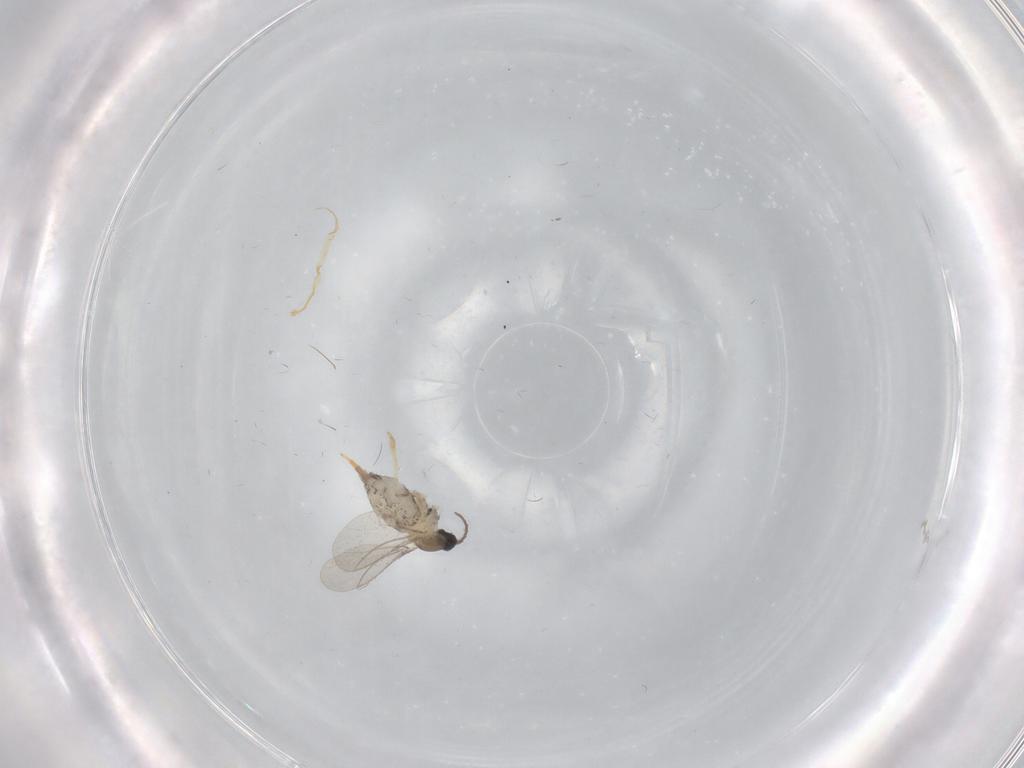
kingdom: Animalia
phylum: Arthropoda
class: Insecta
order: Diptera
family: Cecidomyiidae
